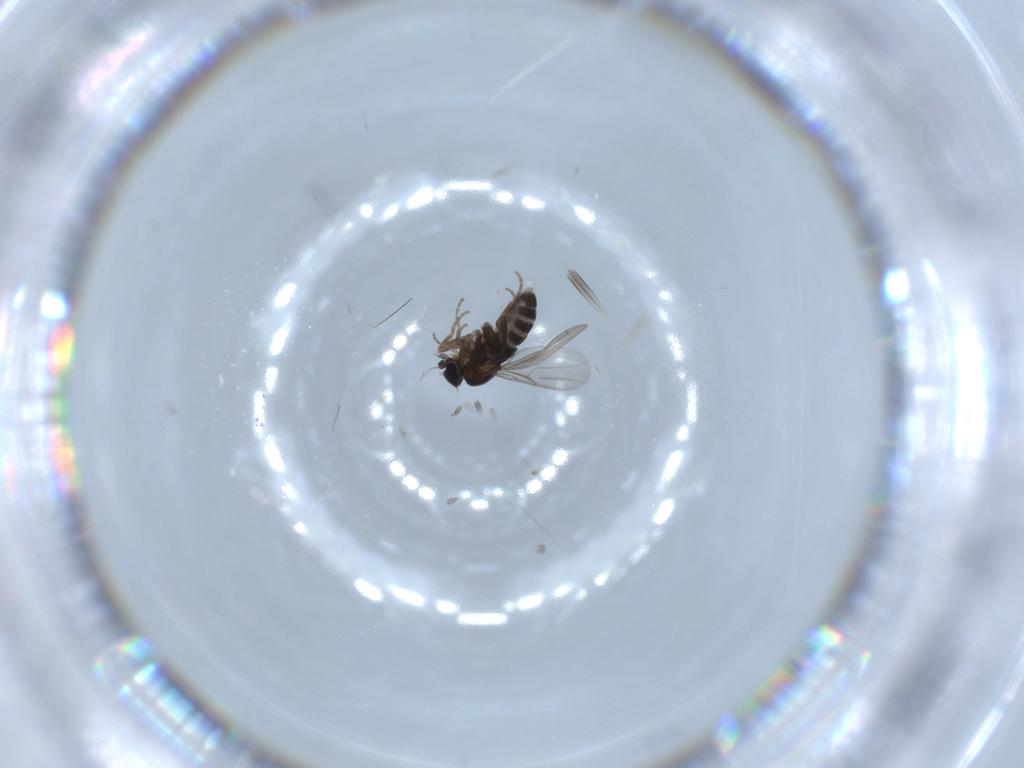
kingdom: Animalia
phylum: Arthropoda
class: Insecta
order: Diptera
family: Phoridae
